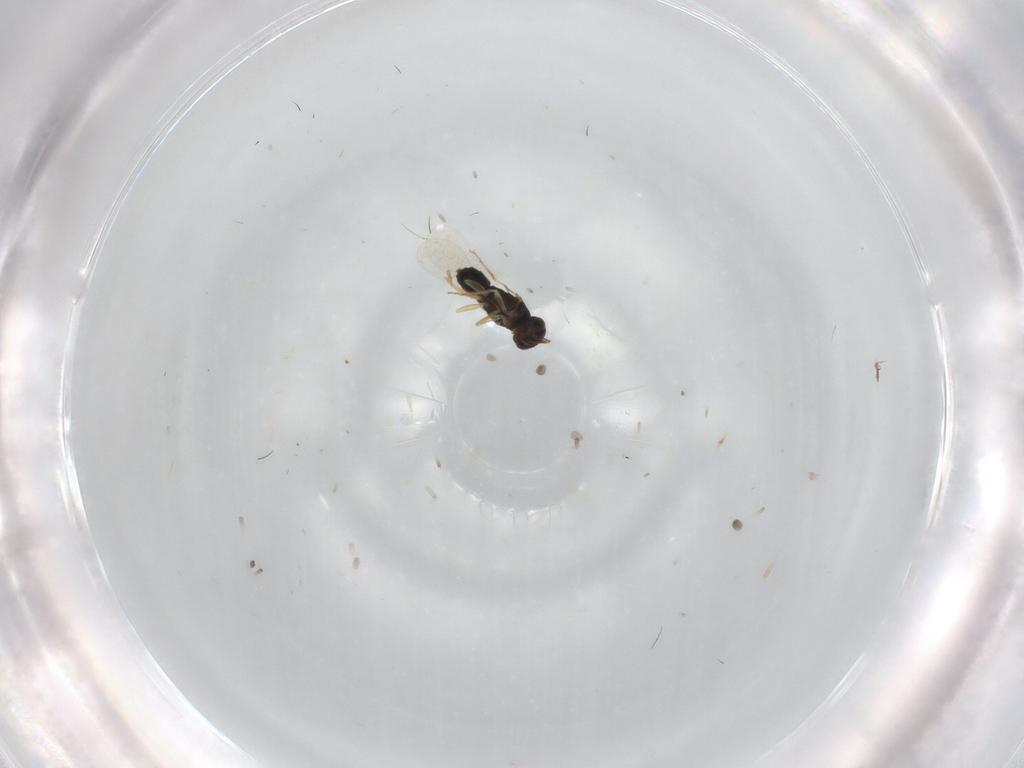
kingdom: Animalia
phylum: Arthropoda
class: Insecta
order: Hymenoptera
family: Eulophidae
